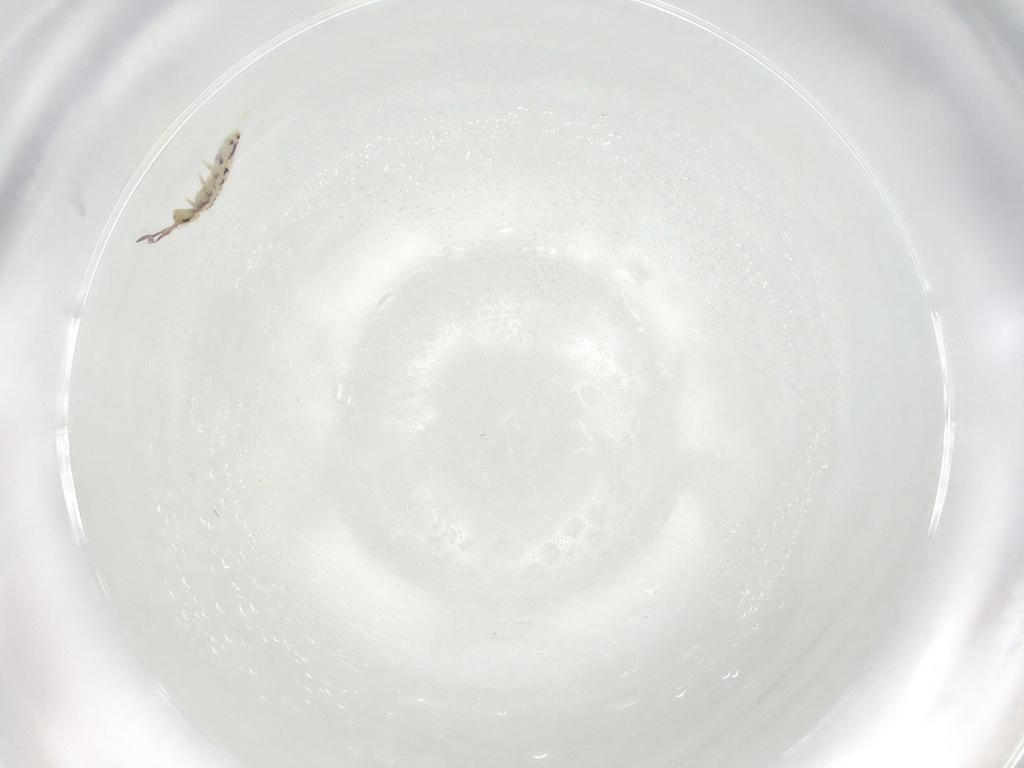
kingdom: Animalia
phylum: Arthropoda
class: Collembola
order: Entomobryomorpha
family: Entomobryidae
